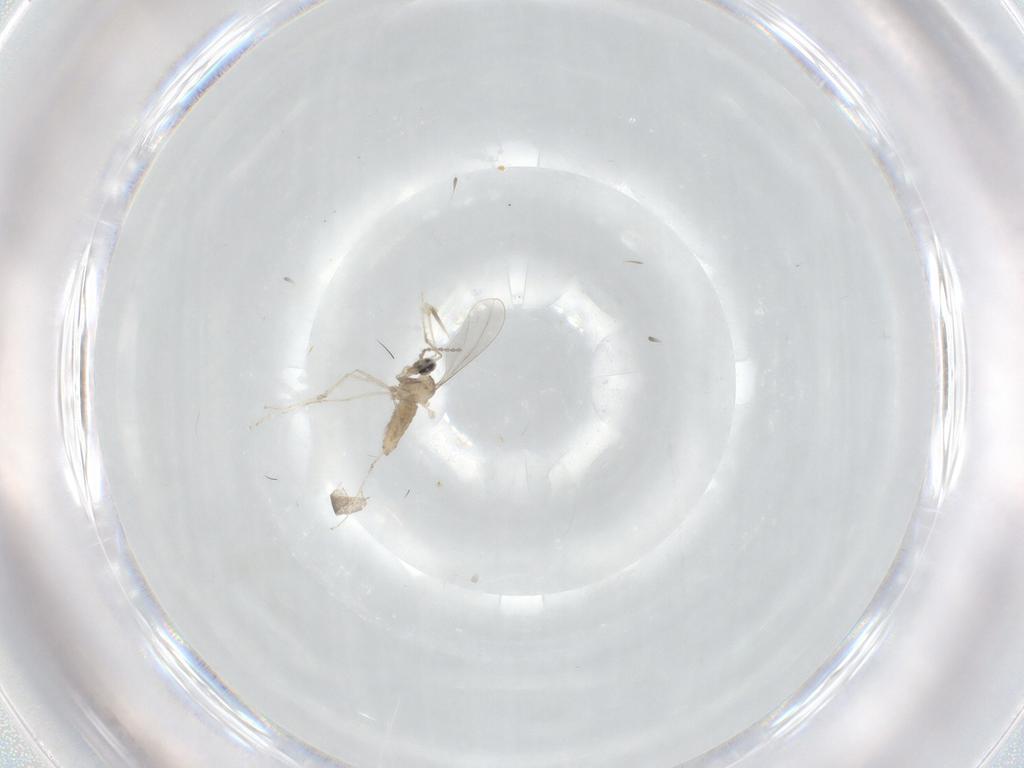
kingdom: Animalia
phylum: Arthropoda
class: Insecta
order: Diptera
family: Cecidomyiidae
